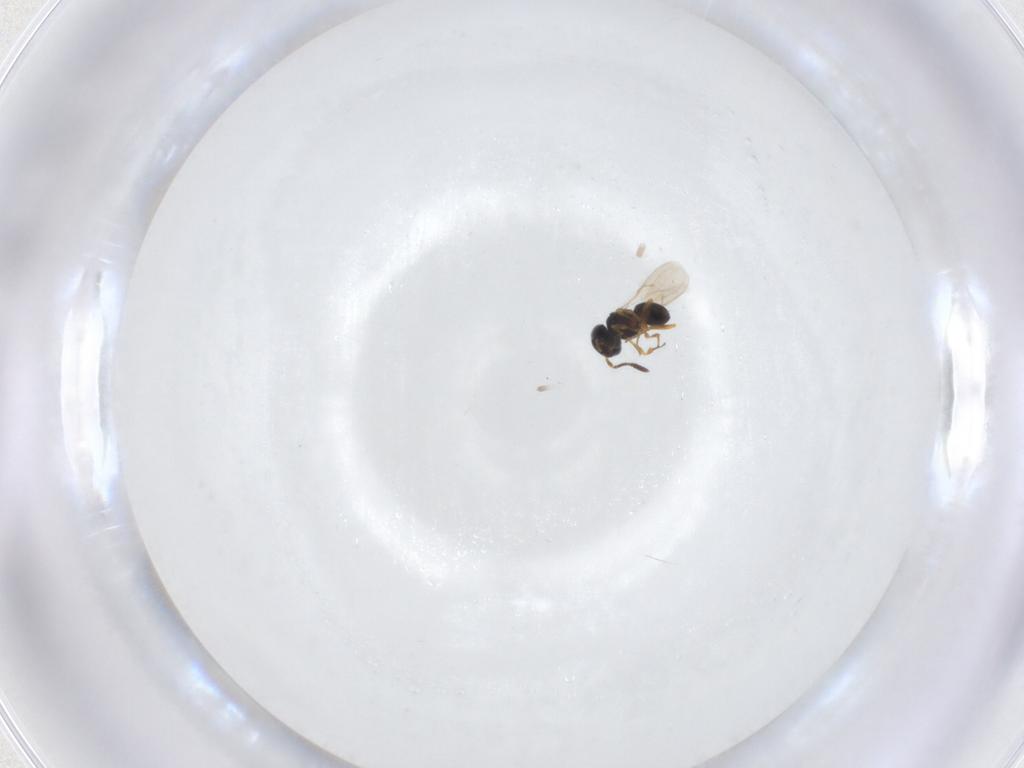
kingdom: Animalia
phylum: Arthropoda
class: Insecta
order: Hymenoptera
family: Scelionidae
